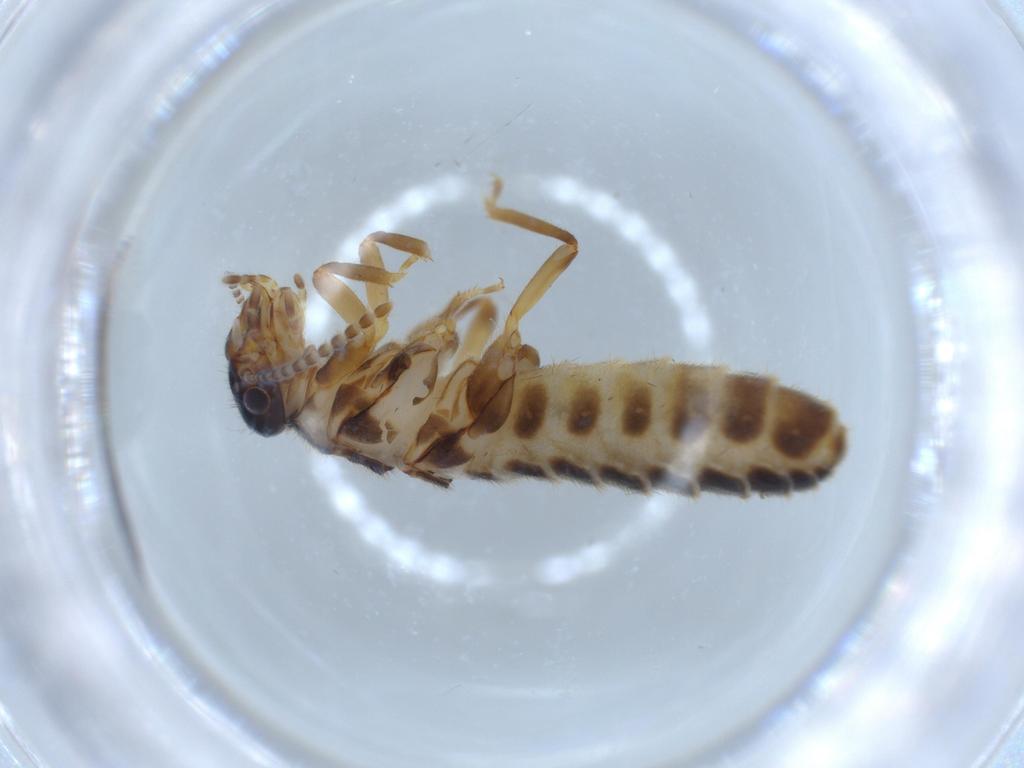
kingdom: Animalia
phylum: Arthropoda
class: Insecta
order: Blattodea
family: Termitidae
